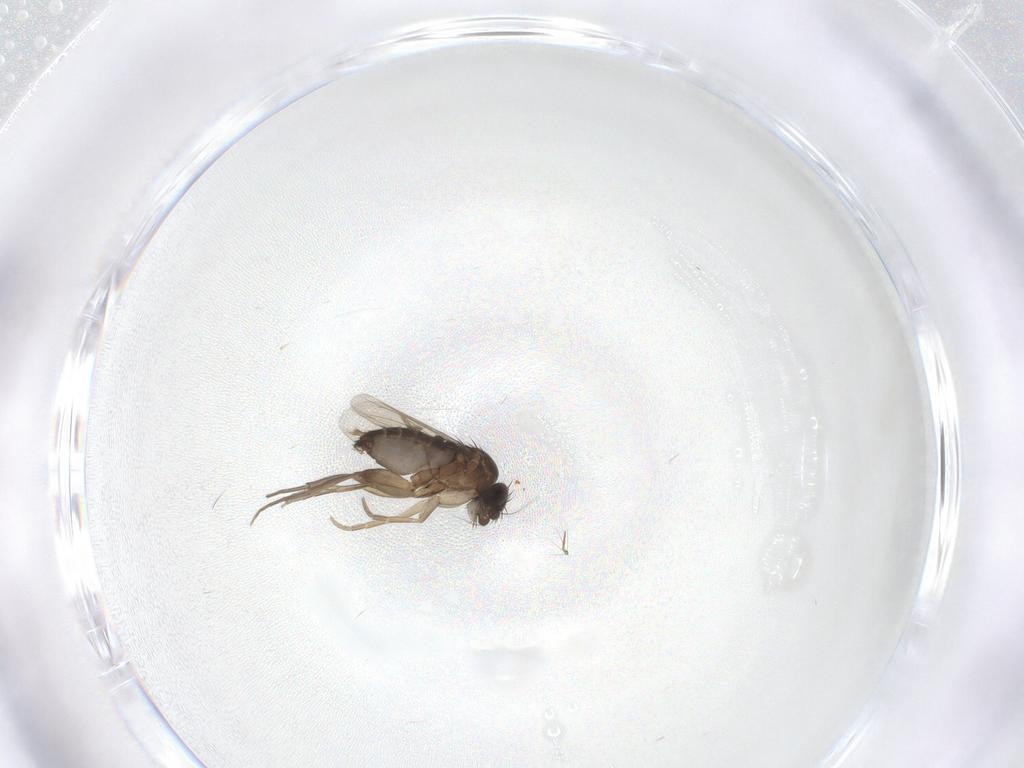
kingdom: Animalia
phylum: Arthropoda
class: Insecta
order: Diptera
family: Phoridae
